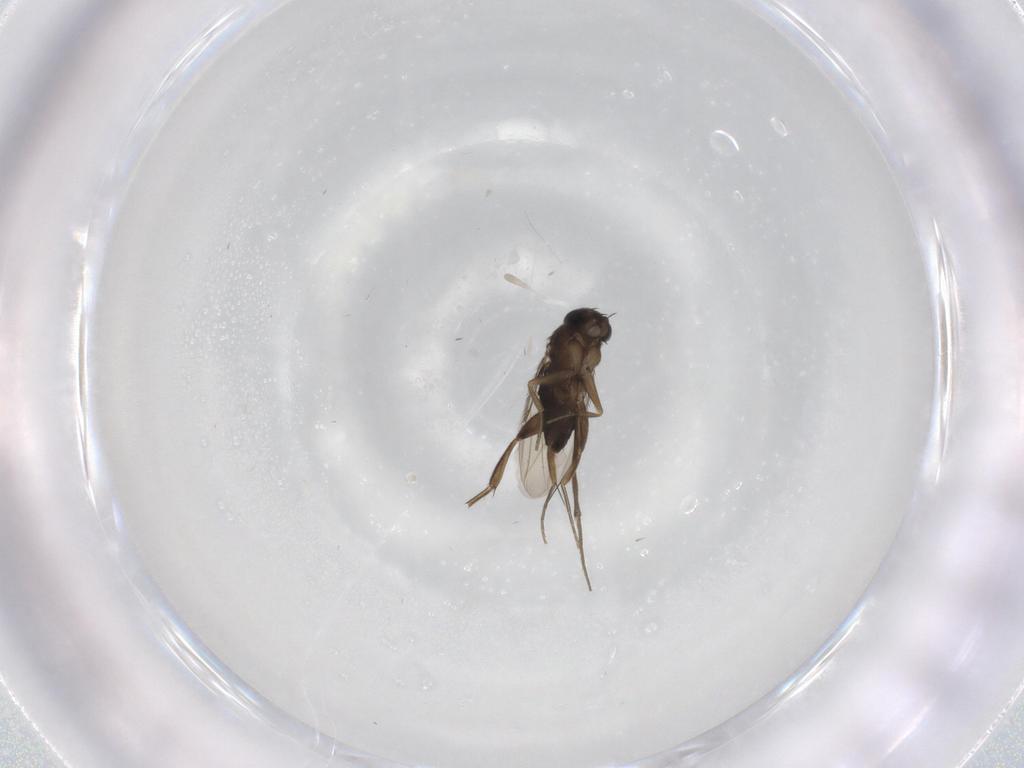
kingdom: Animalia
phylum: Arthropoda
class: Insecta
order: Diptera
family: Phoridae
